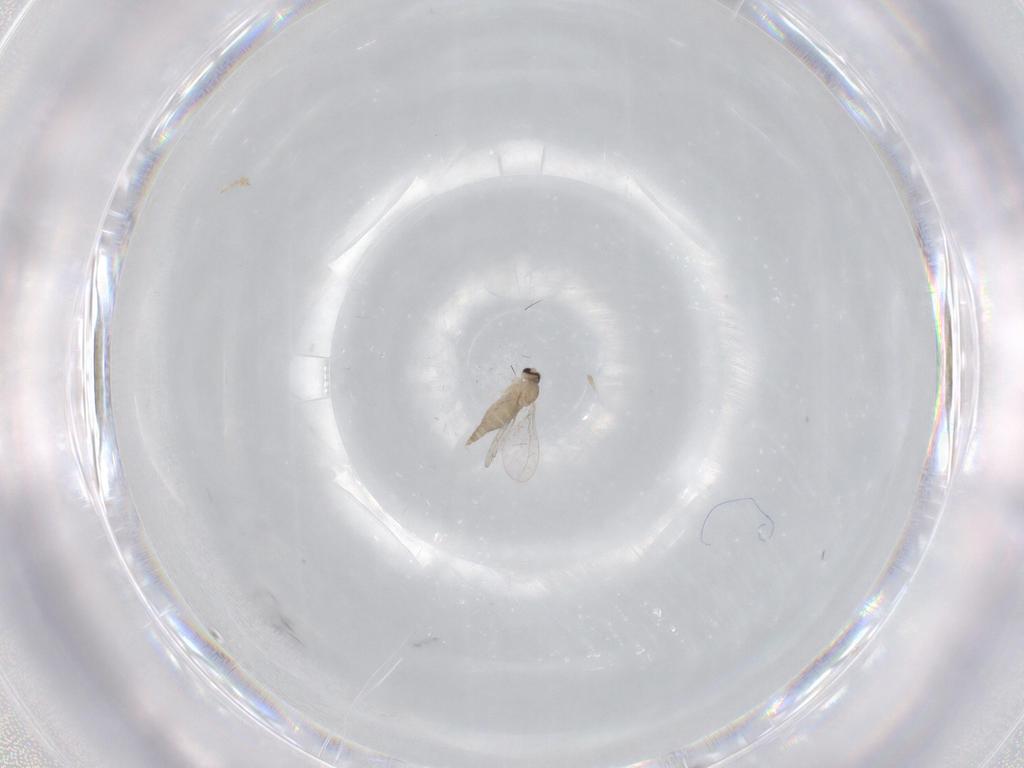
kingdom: Animalia
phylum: Arthropoda
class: Insecta
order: Diptera
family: Cecidomyiidae
